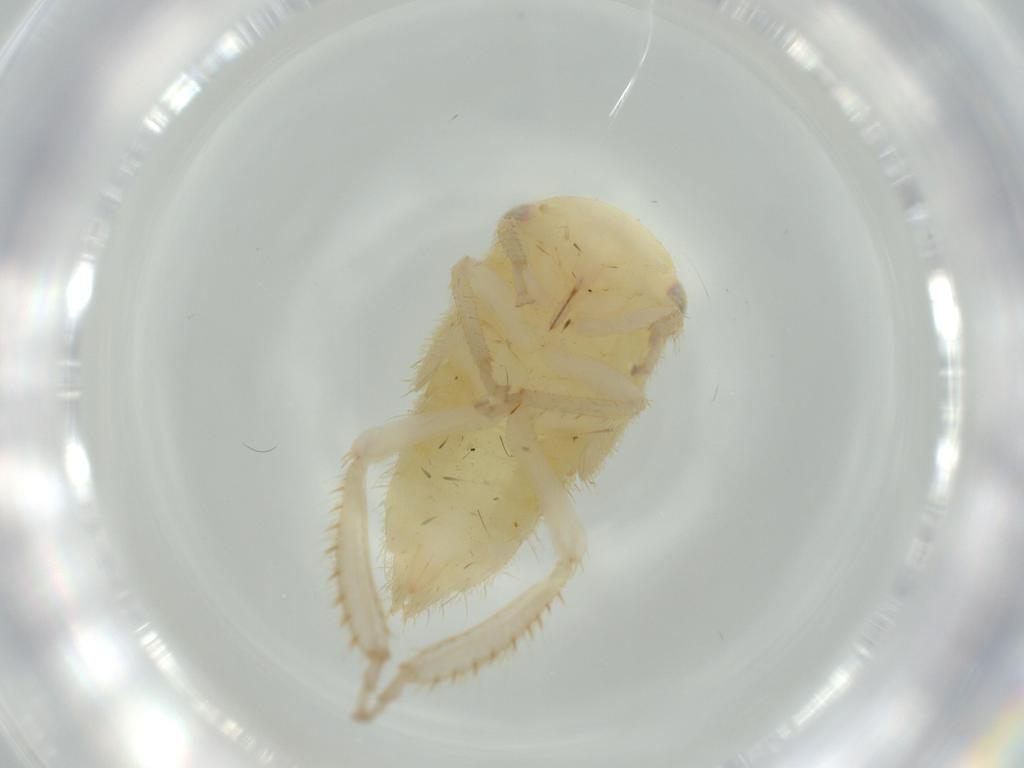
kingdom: Animalia
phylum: Arthropoda
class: Insecta
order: Hemiptera
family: Cicadellidae
